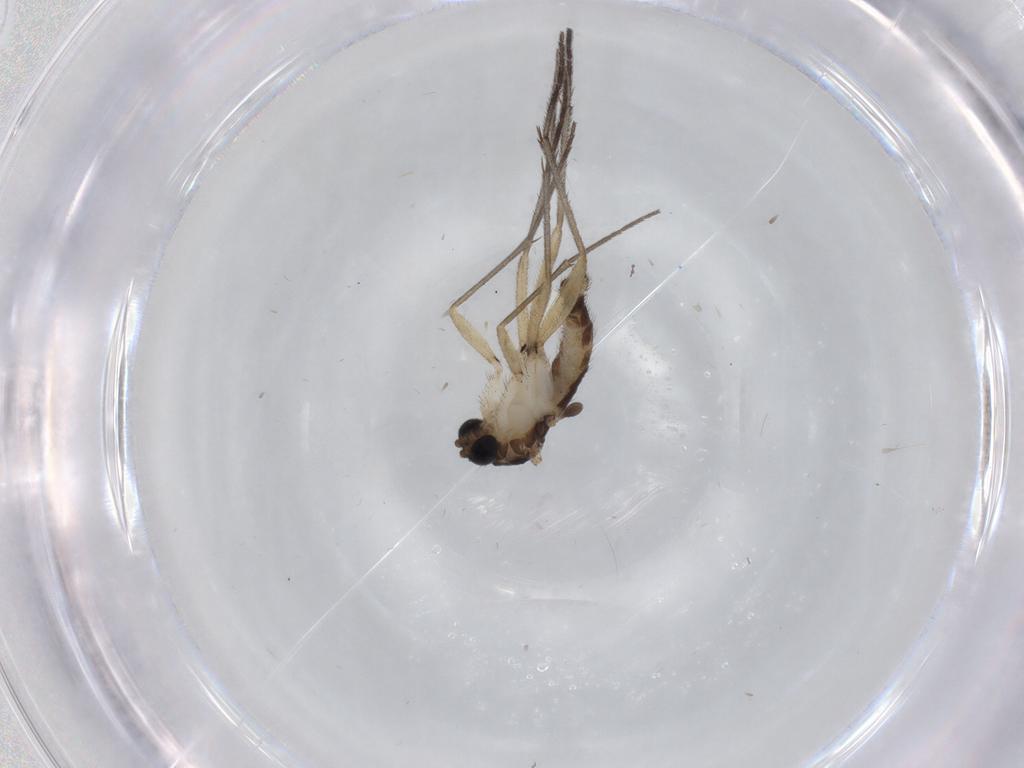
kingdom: Animalia
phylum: Arthropoda
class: Insecta
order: Diptera
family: Sciaridae
